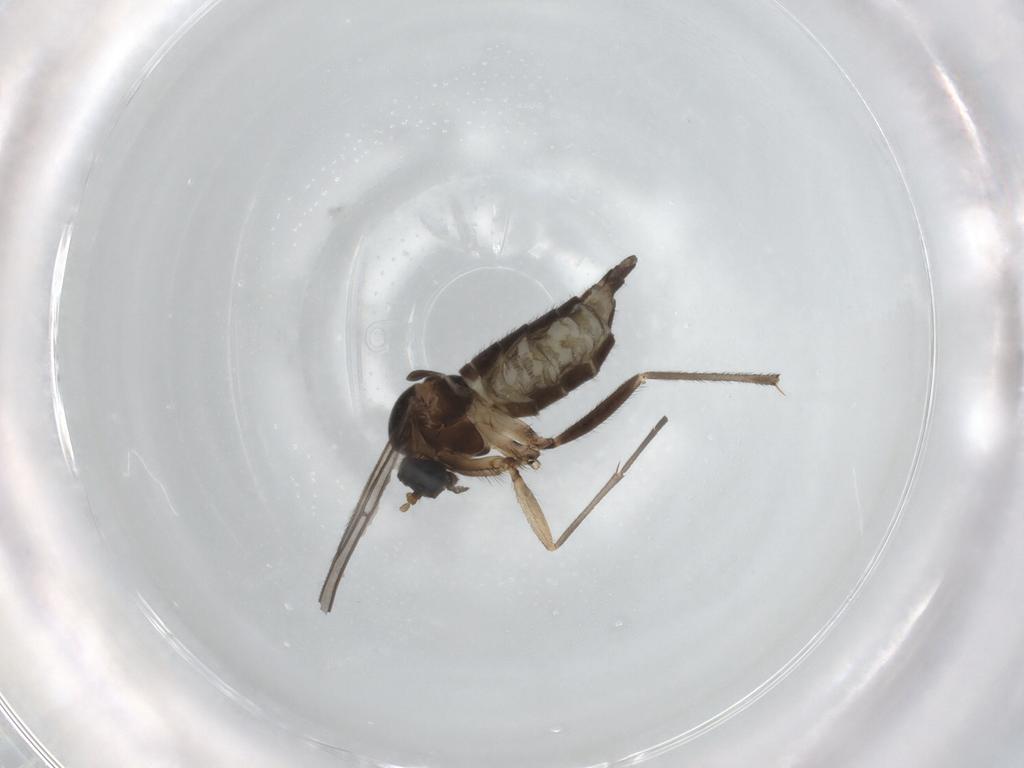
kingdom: Animalia
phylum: Arthropoda
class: Insecta
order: Diptera
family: Sciaridae
